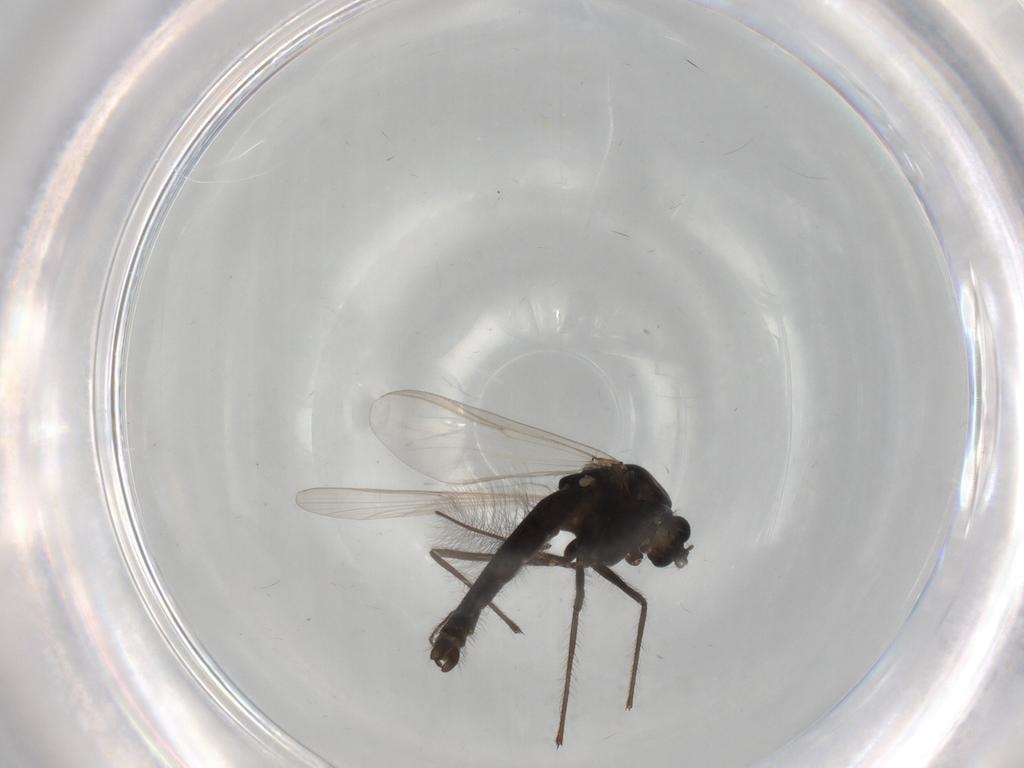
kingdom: Animalia
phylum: Arthropoda
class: Insecta
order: Diptera
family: Chironomidae
